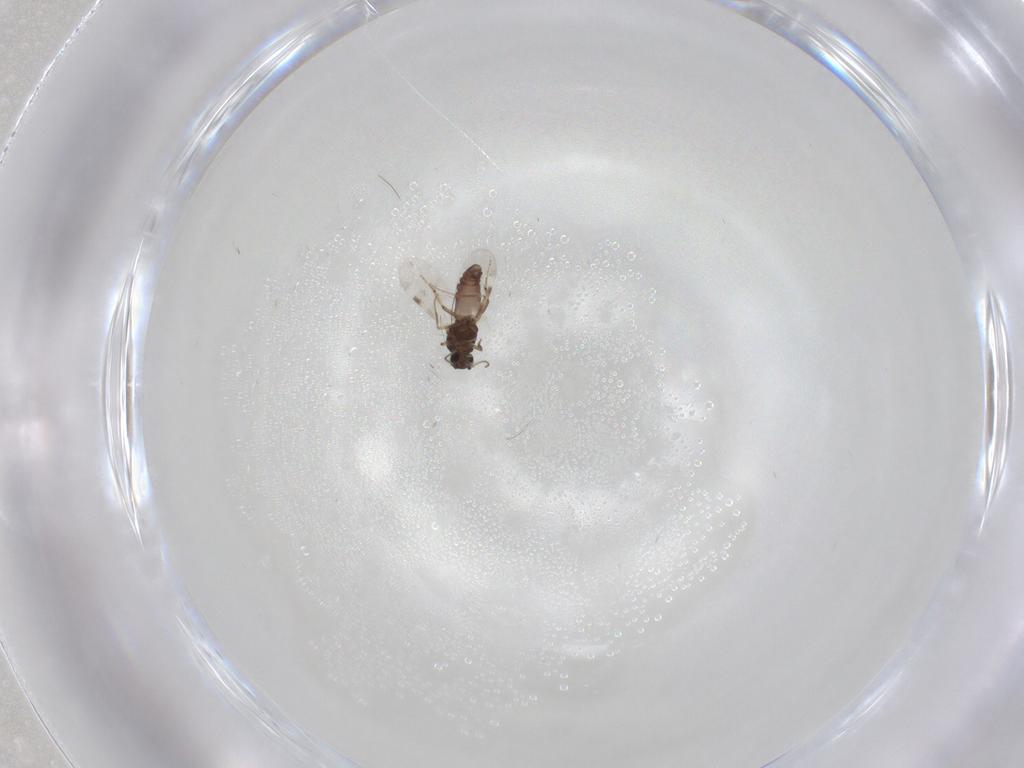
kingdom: Animalia
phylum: Arthropoda
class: Insecta
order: Diptera
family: Chironomidae
